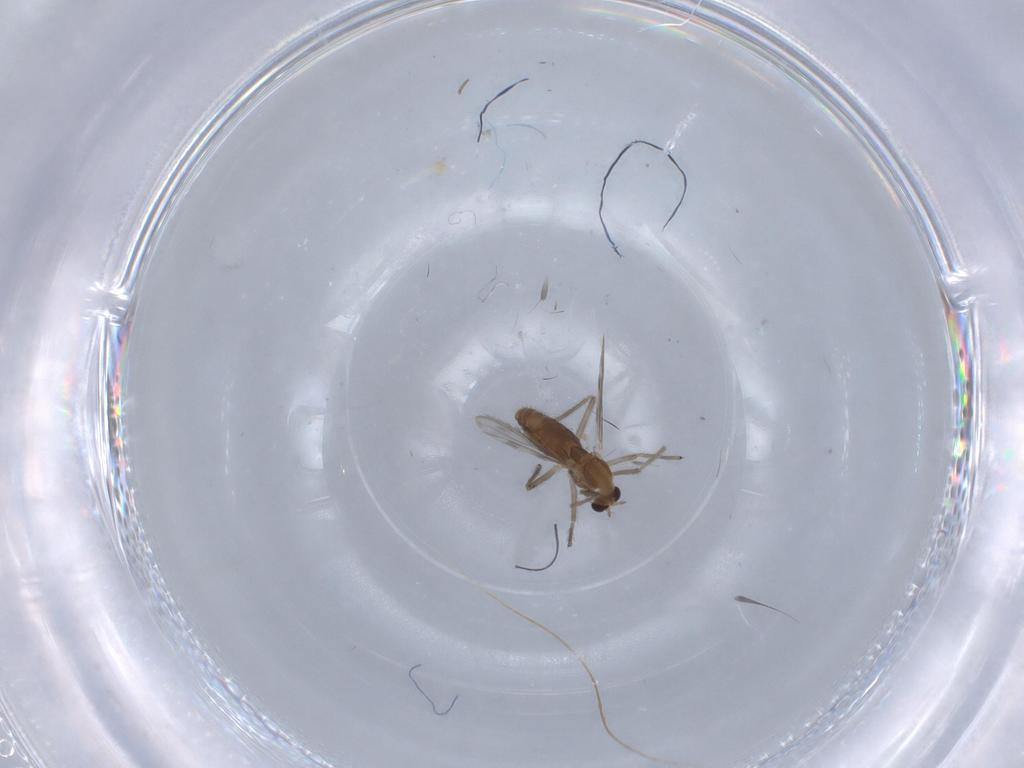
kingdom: Animalia
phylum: Arthropoda
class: Insecta
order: Diptera
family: Chironomidae
